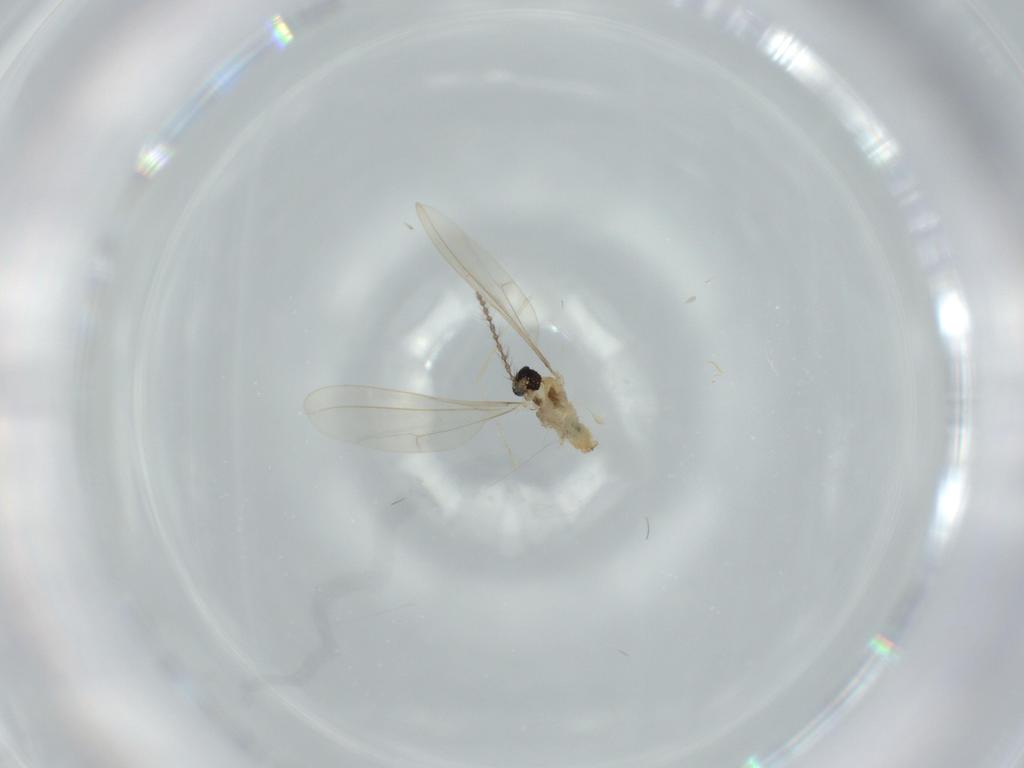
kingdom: Animalia
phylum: Arthropoda
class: Insecta
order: Diptera
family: Cecidomyiidae
